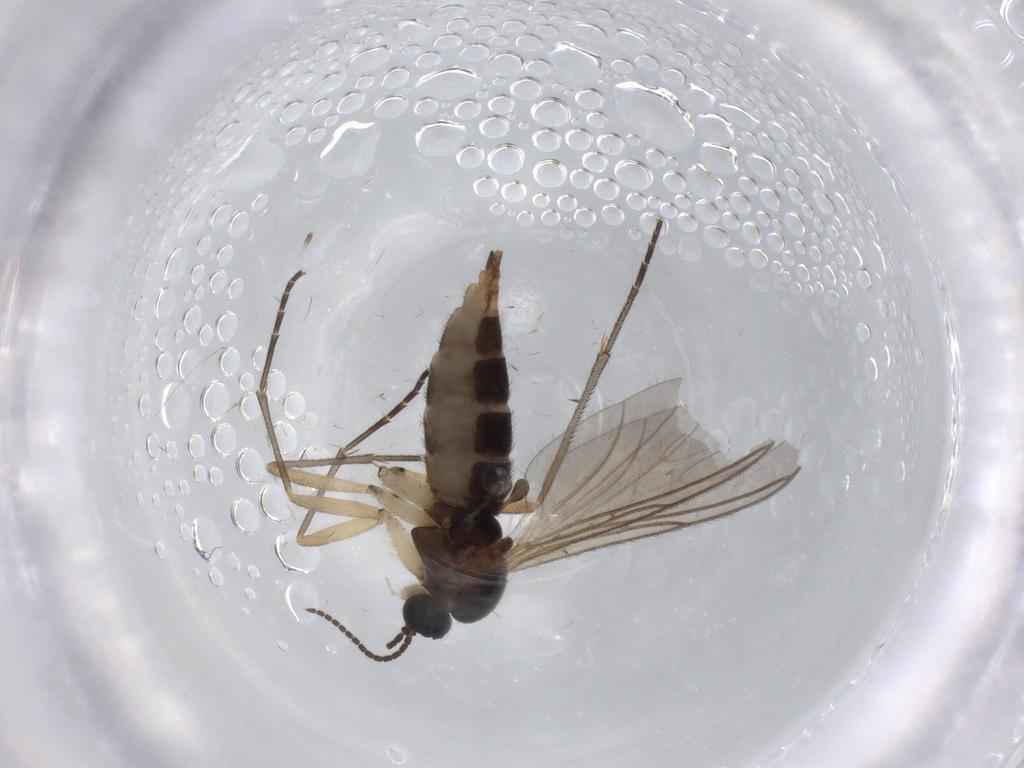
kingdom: Animalia
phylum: Arthropoda
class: Insecta
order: Diptera
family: Sciaridae
